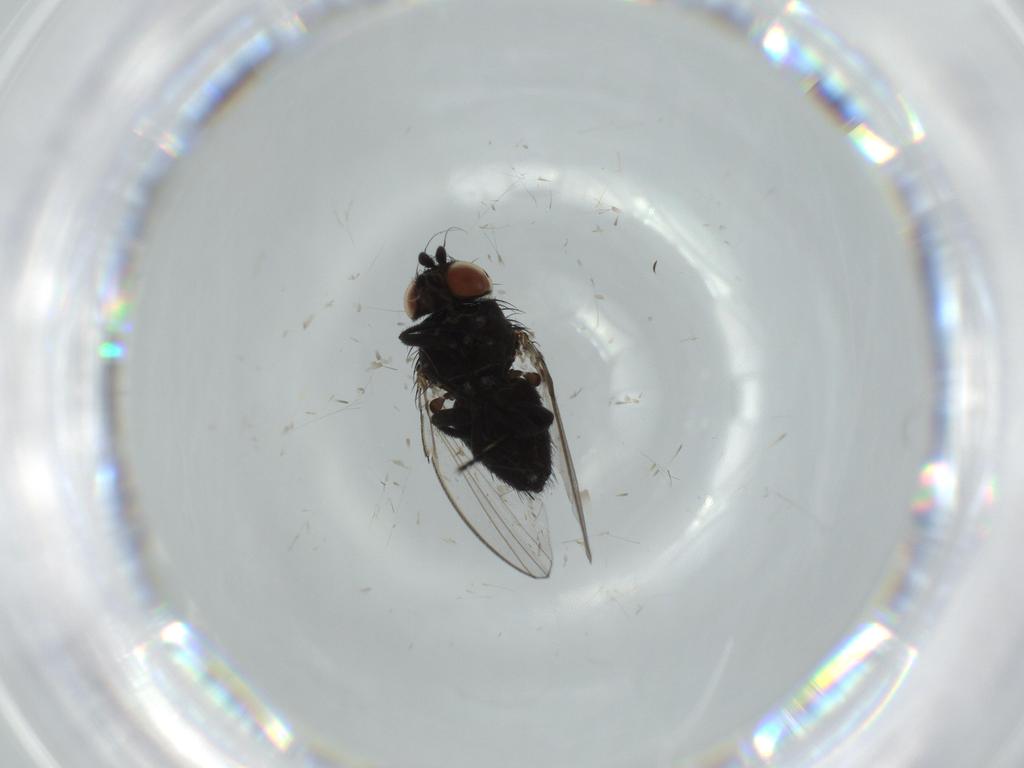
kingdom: Animalia
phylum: Arthropoda
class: Insecta
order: Diptera
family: Milichiidae
